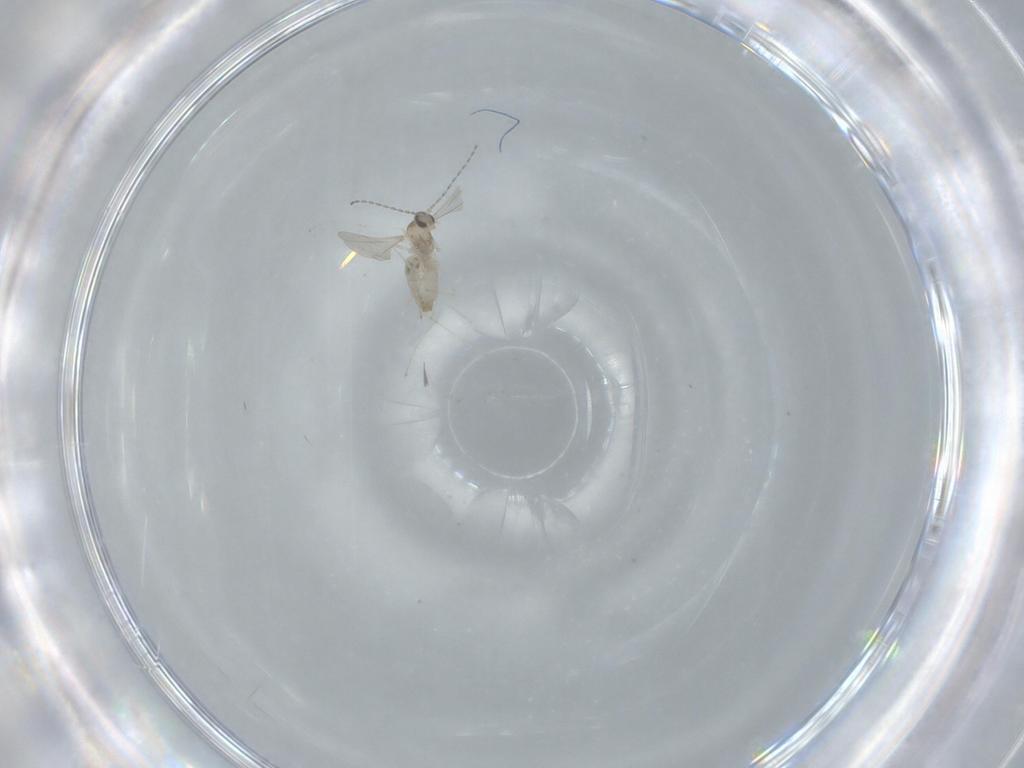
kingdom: Animalia
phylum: Arthropoda
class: Insecta
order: Diptera
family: Cecidomyiidae
